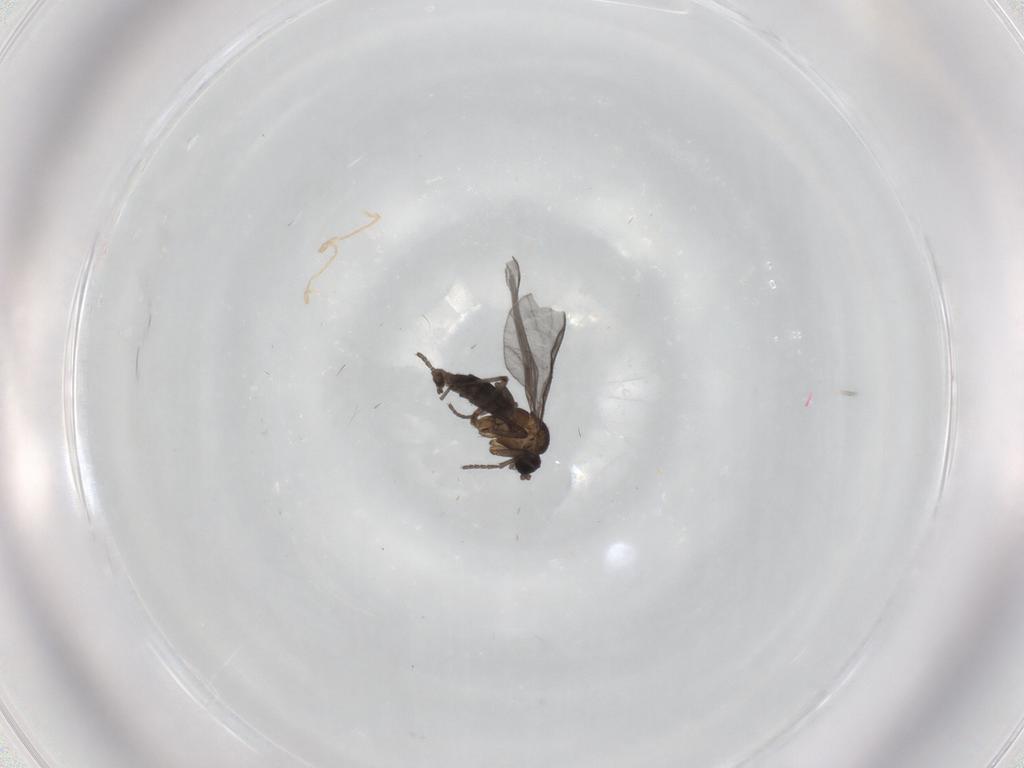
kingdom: Animalia
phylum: Arthropoda
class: Insecta
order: Diptera
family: Sciaridae
